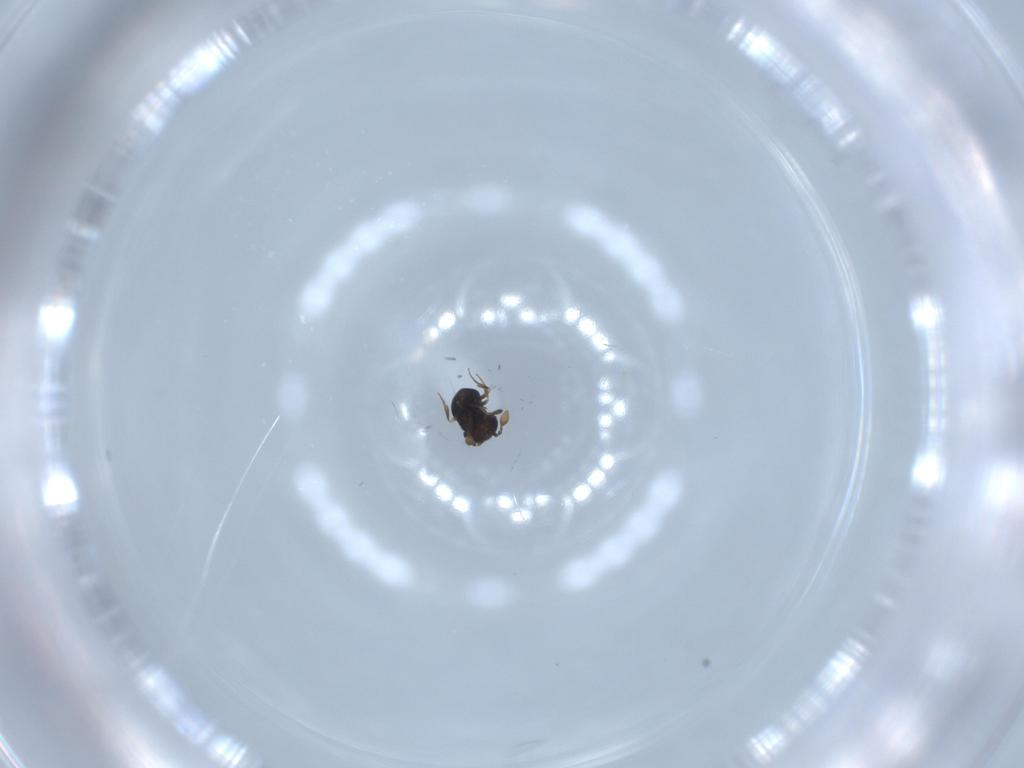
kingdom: Animalia
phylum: Arthropoda
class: Insecta
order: Hymenoptera
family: Scelionidae
